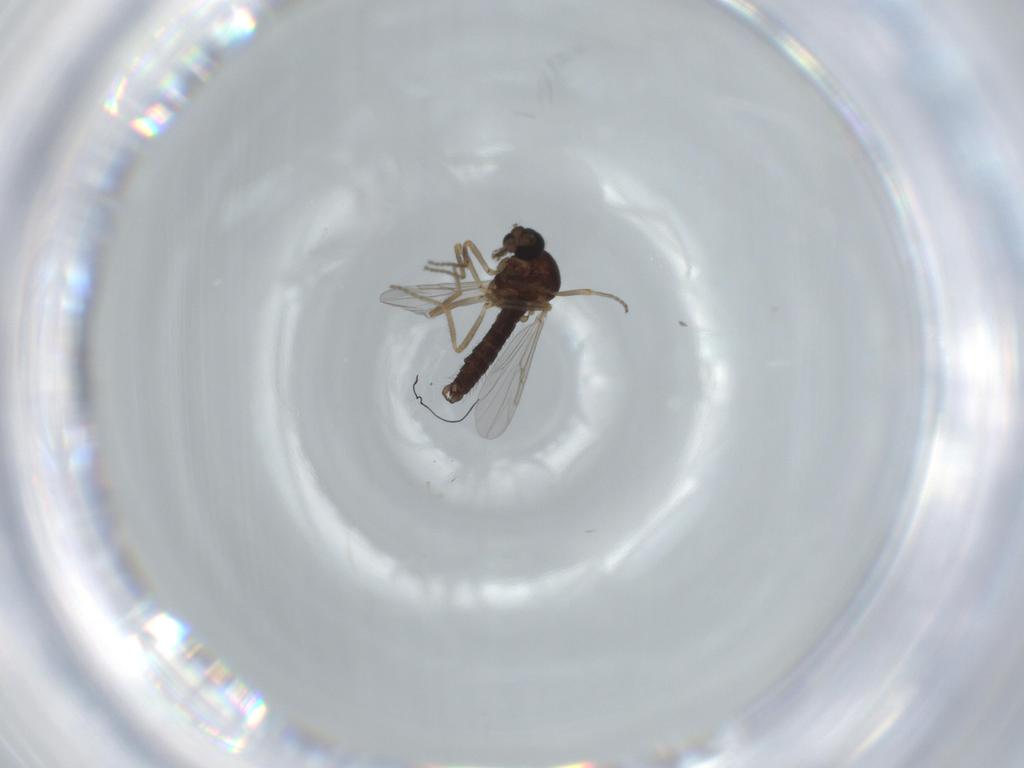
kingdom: Animalia
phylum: Arthropoda
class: Insecta
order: Diptera
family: Ceratopogonidae
